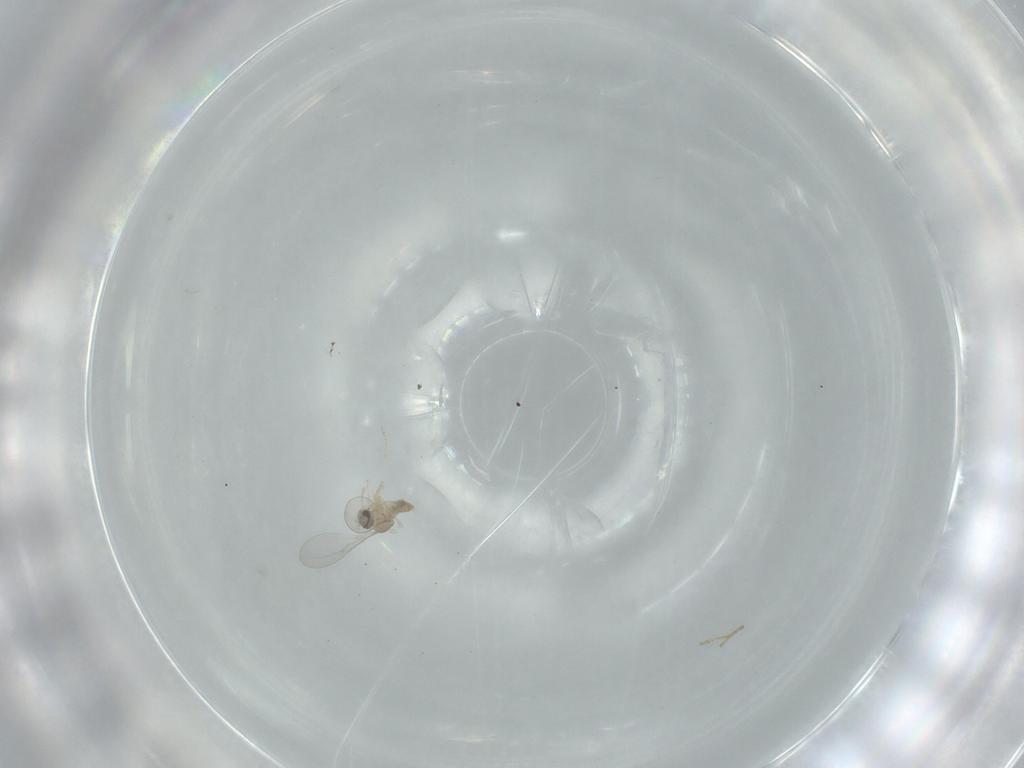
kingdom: Animalia
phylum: Arthropoda
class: Insecta
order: Diptera
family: Cecidomyiidae
